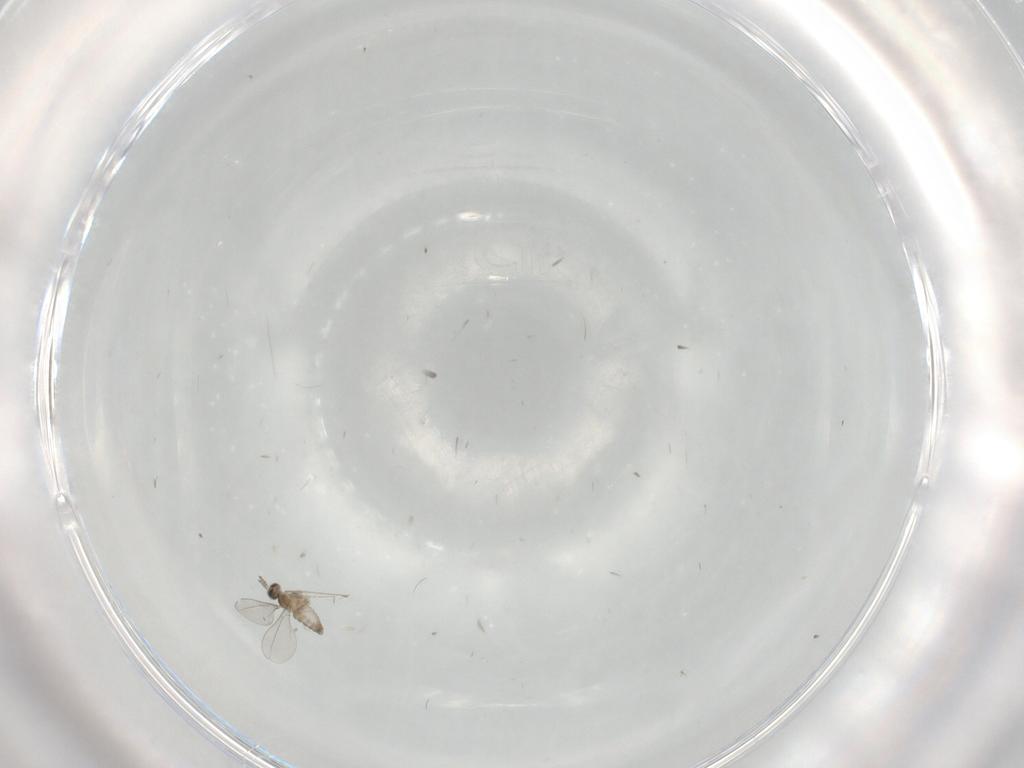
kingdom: Animalia
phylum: Arthropoda
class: Insecta
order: Diptera
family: Cecidomyiidae
